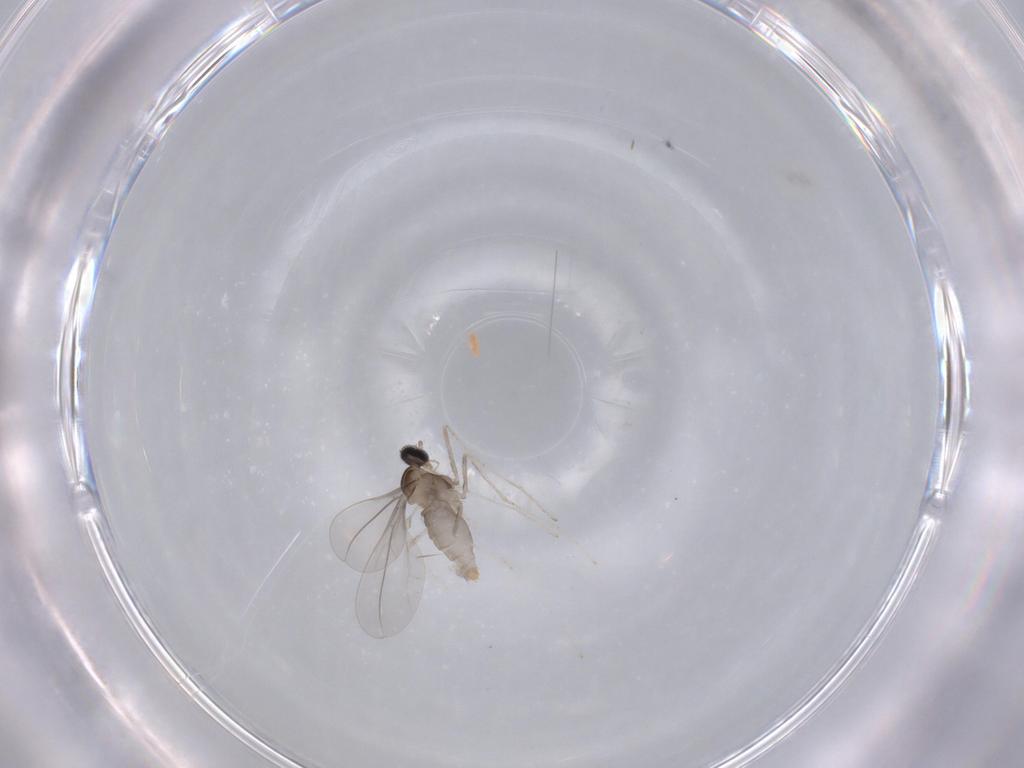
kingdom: Animalia
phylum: Arthropoda
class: Insecta
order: Diptera
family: Cecidomyiidae
